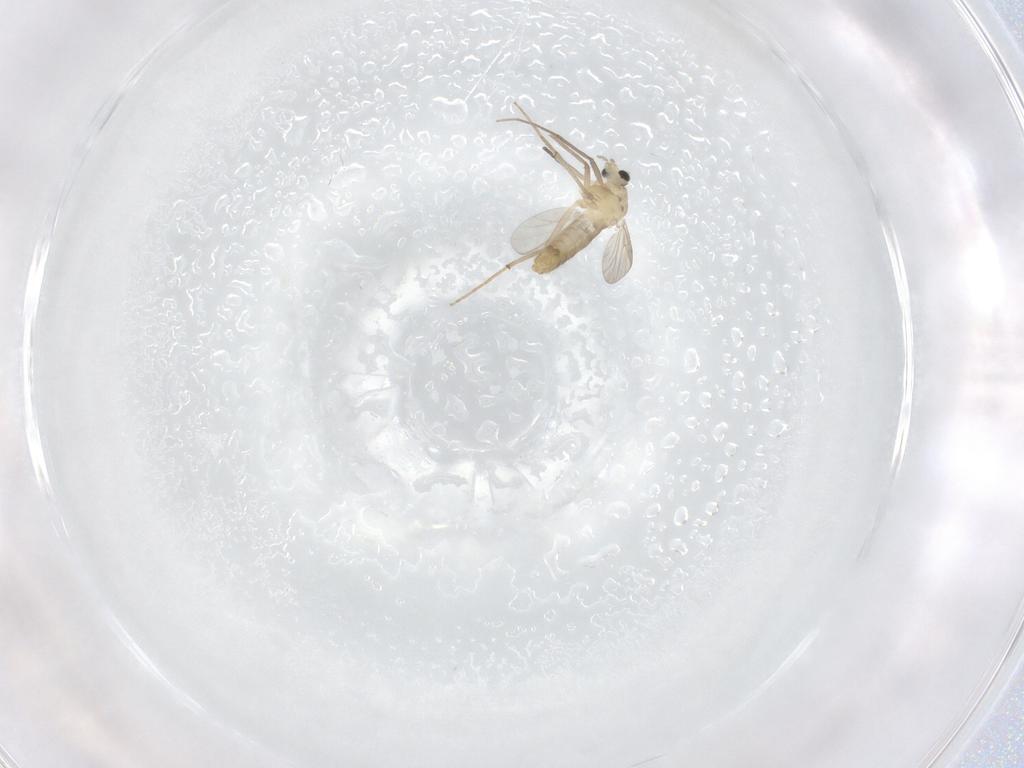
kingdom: Animalia
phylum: Arthropoda
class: Insecta
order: Diptera
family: Chironomidae
